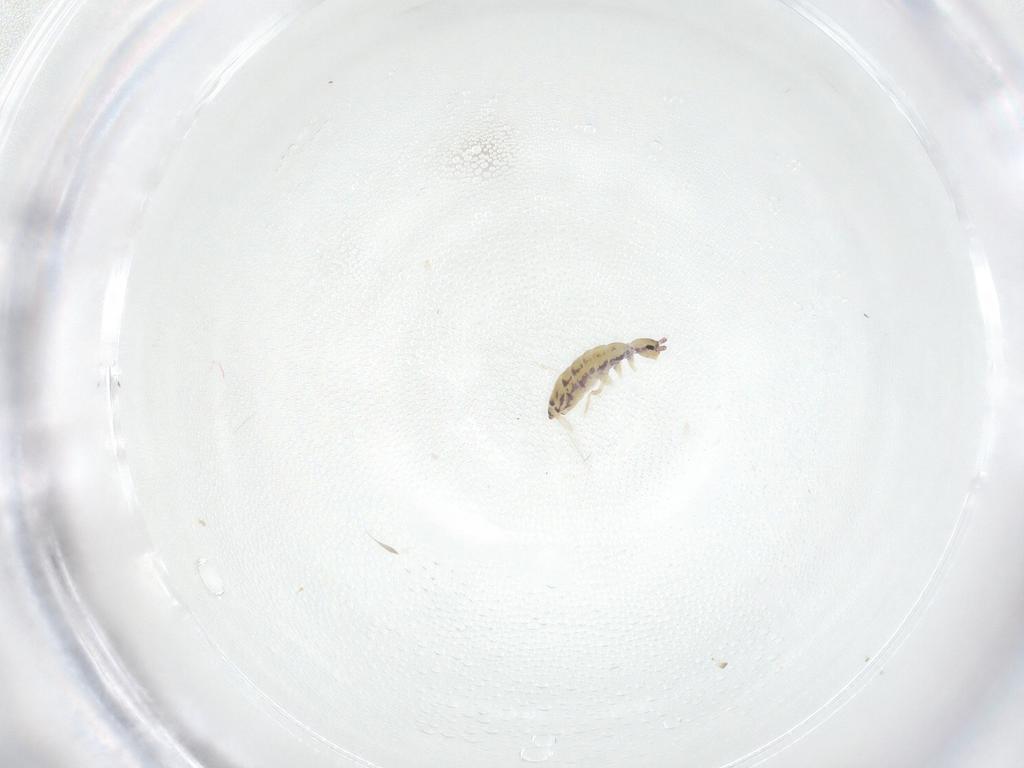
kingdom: Animalia
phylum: Arthropoda
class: Collembola
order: Entomobryomorpha
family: Entomobryidae
